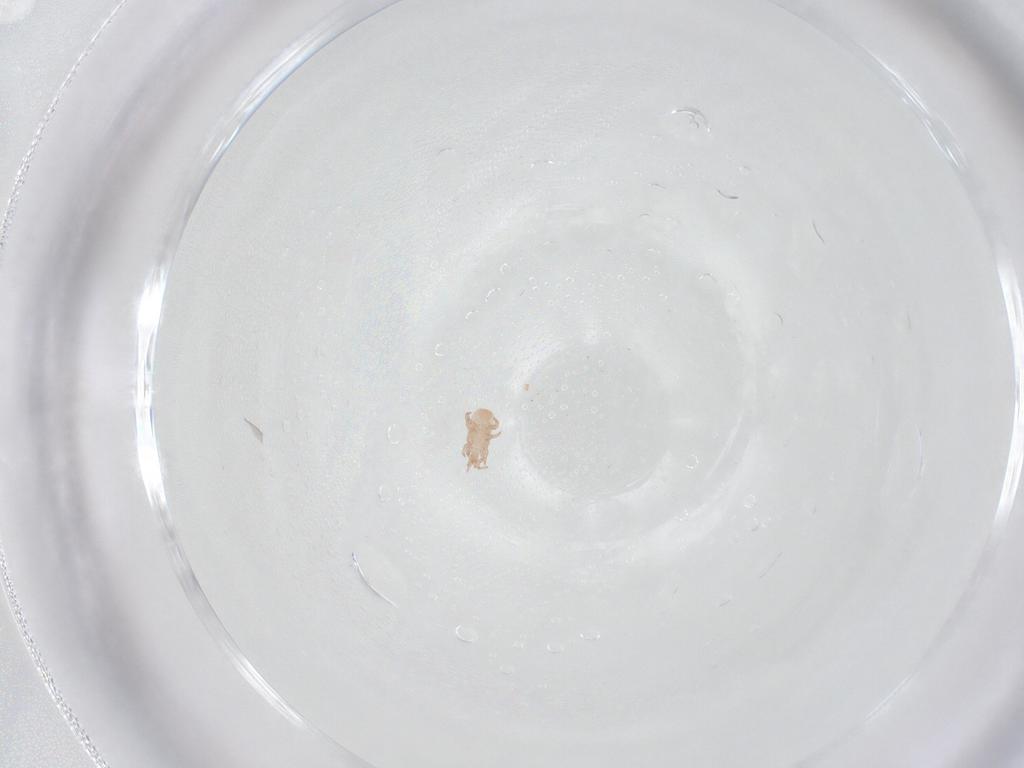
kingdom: Animalia
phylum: Arthropoda
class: Arachnida
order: Mesostigmata
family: Digamasellidae
